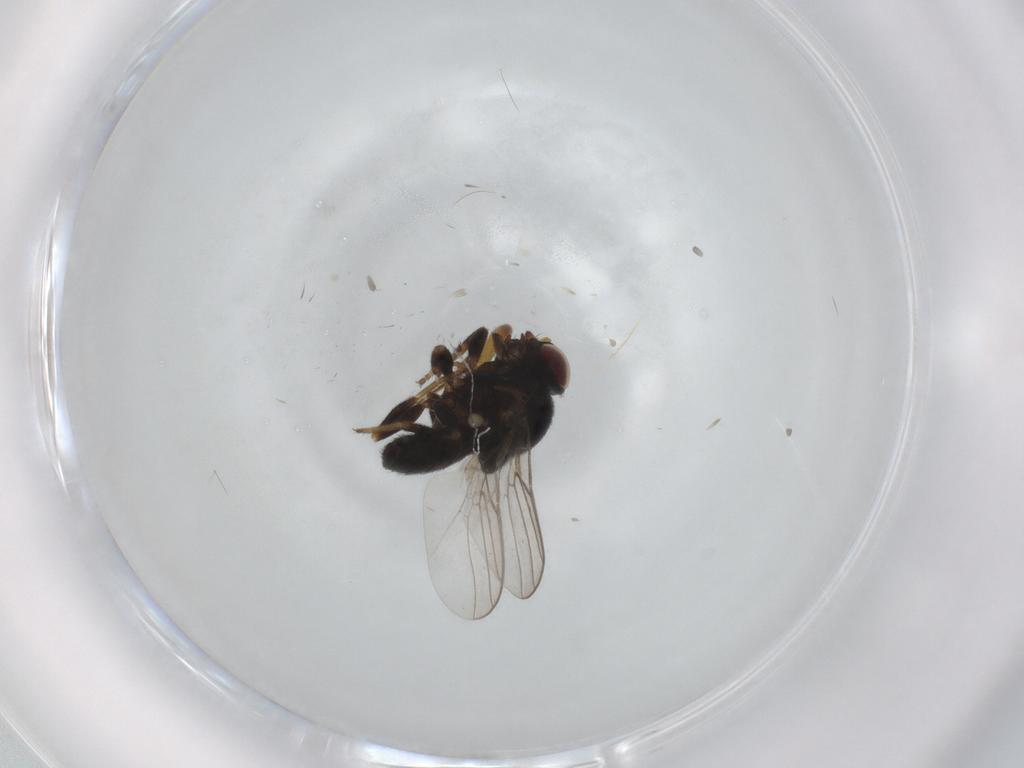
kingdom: Animalia
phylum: Arthropoda
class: Insecta
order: Diptera
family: Chloropidae
